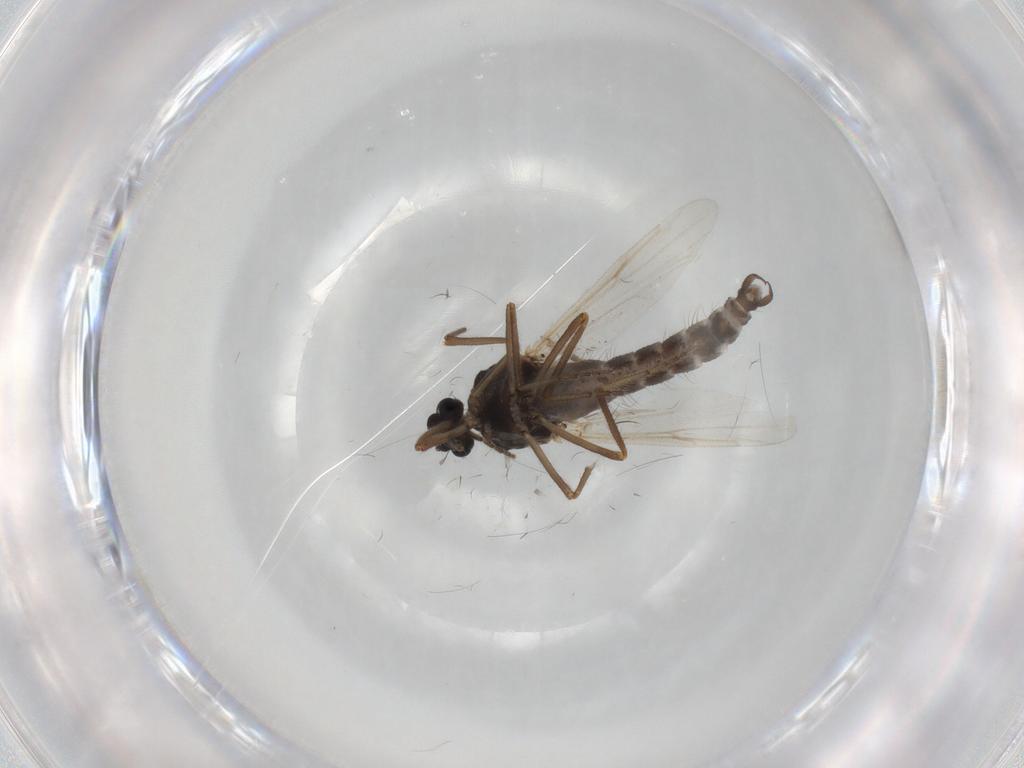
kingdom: Animalia
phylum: Arthropoda
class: Insecta
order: Diptera
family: Ceratopogonidae
